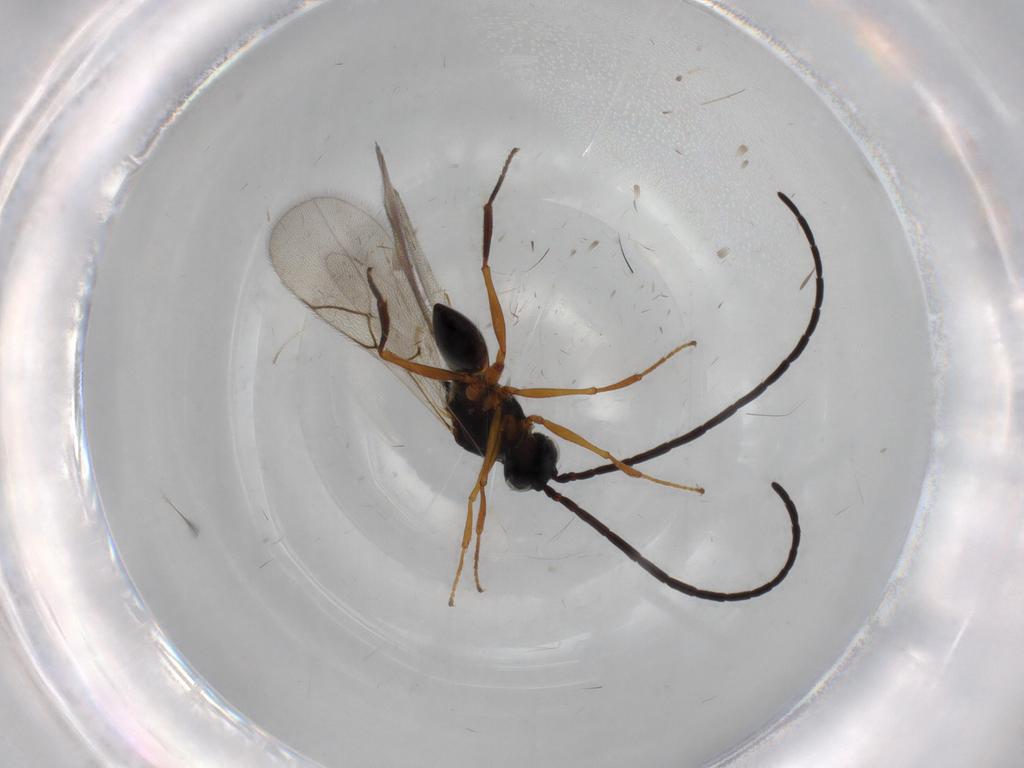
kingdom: Animalia
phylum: Arthropoda
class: Insecta
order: Hymenoptera
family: Figitidae
